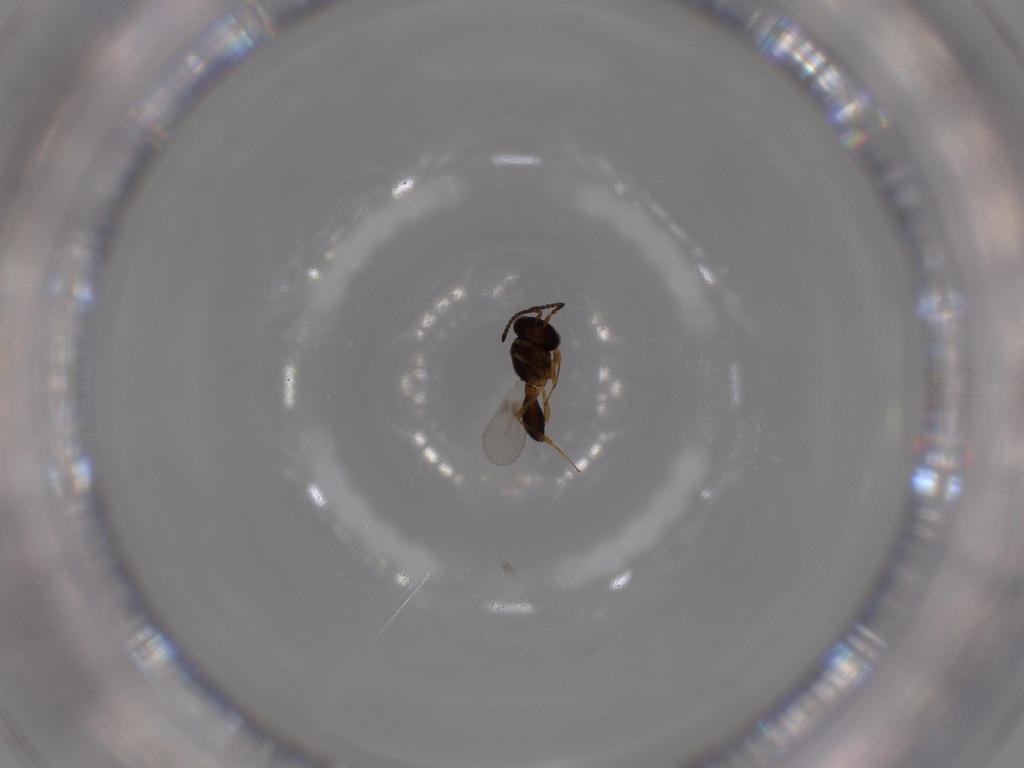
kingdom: Animalia
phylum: Arthropoda
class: Arachnida
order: Araneae
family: Pholcidae
